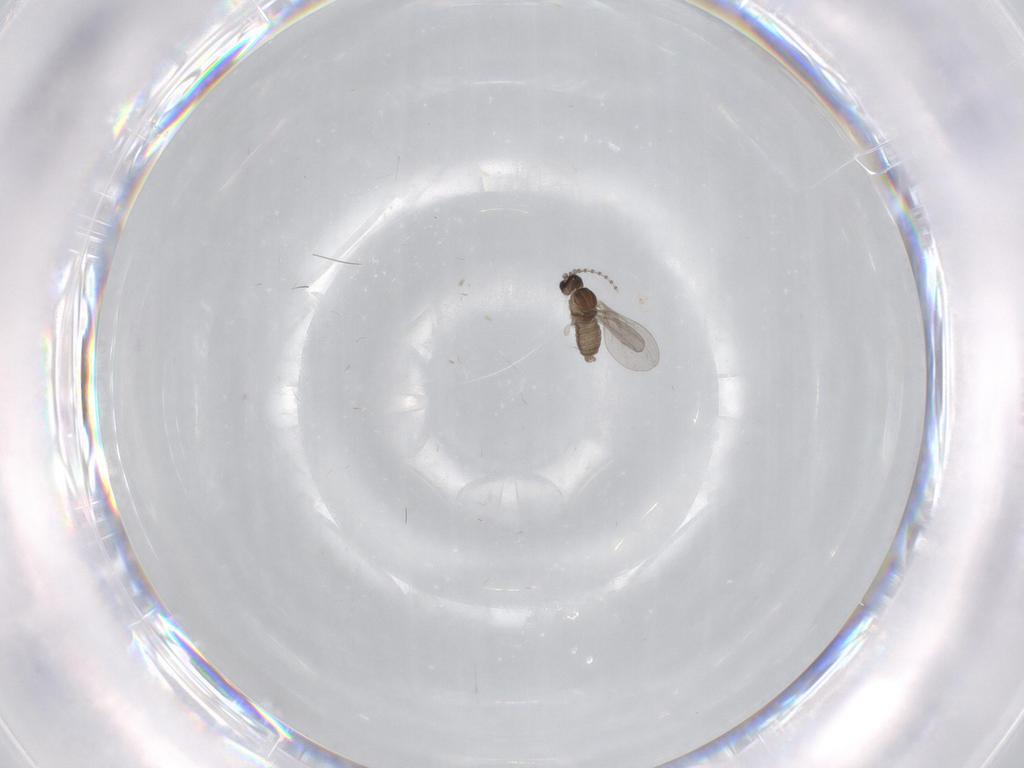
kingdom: Animalia
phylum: Arthropoda
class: Insecta
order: Diptera
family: Cecidomyiidae
